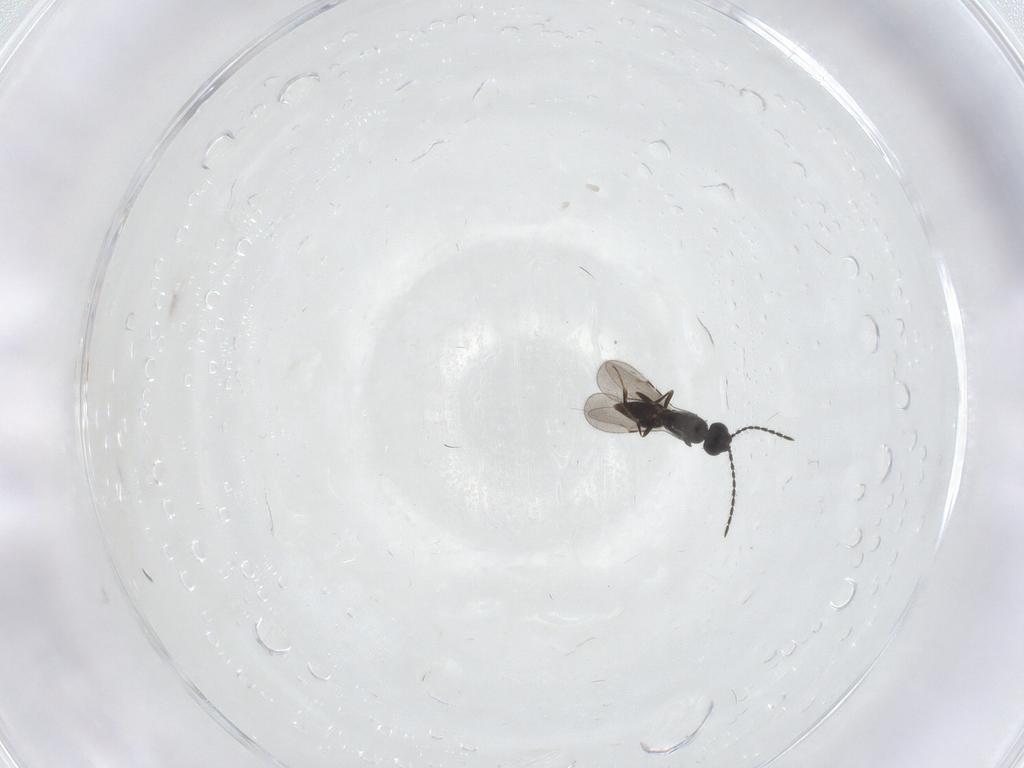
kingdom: Animalia
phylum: Arthropoda
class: Insecta
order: Hymenoptera
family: Ceraphronidae
